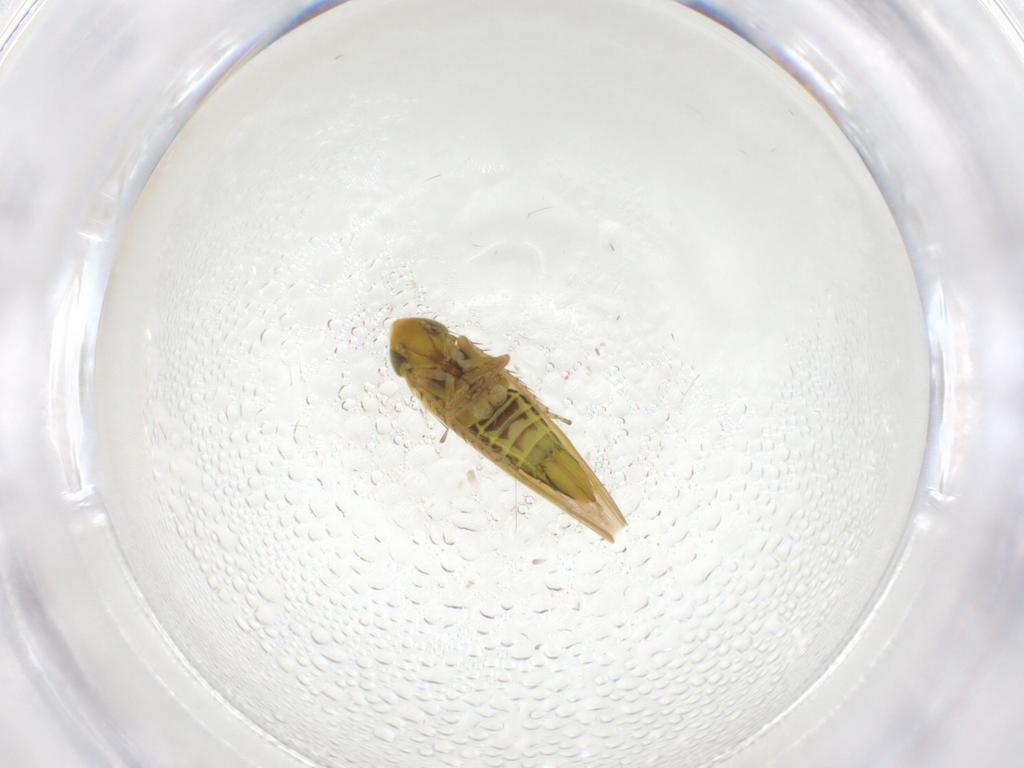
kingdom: Animalia
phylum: Arthropoda
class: Insecta
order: Hemiptera
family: Cicadellidae
